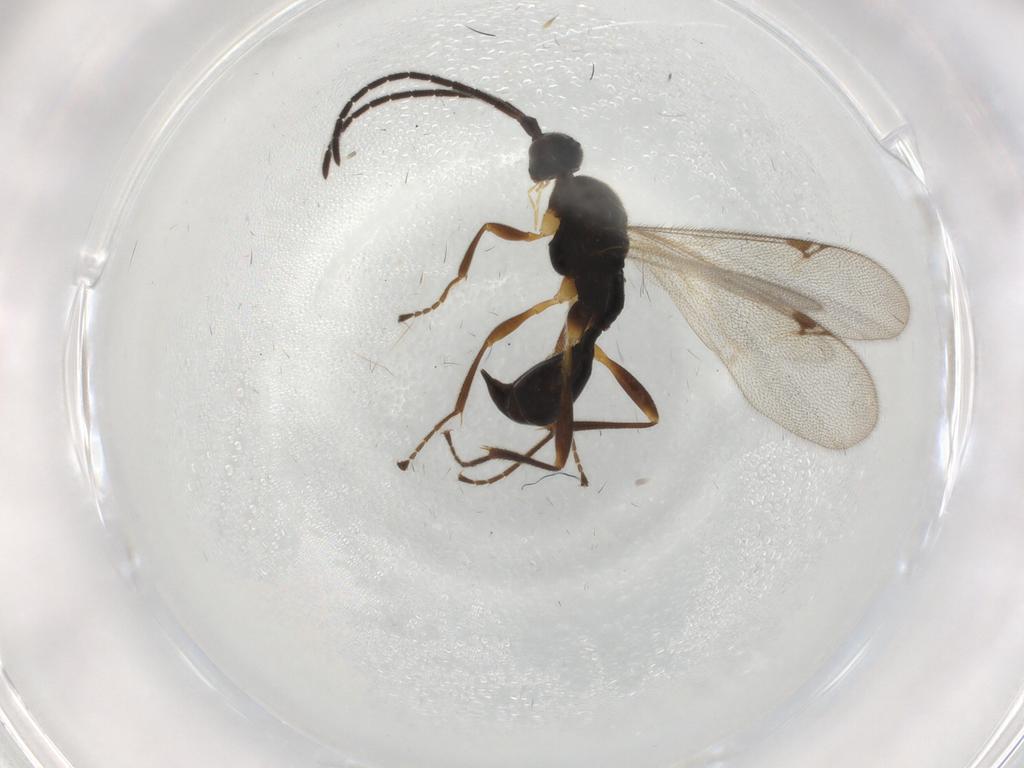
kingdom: Animalia
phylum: Arthropoda
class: Insecta
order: Hymenoptera
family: Proctotrupidae
